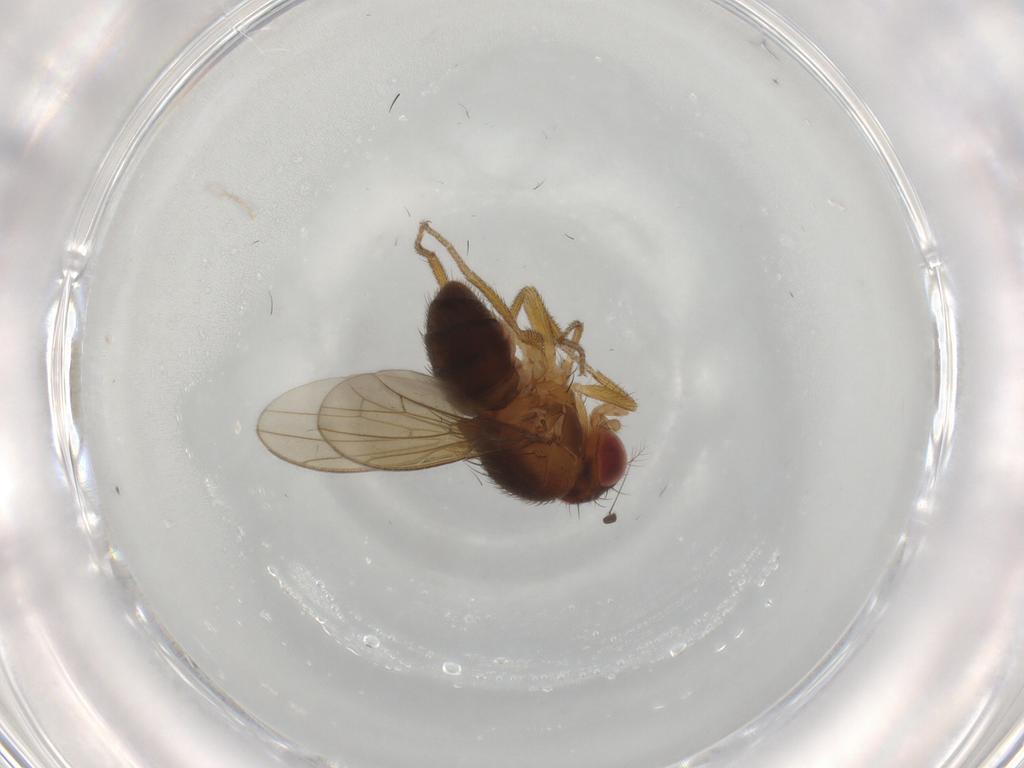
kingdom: Animalia
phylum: Arthropoda
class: Insecta
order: Diptera
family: Drosophilidae
